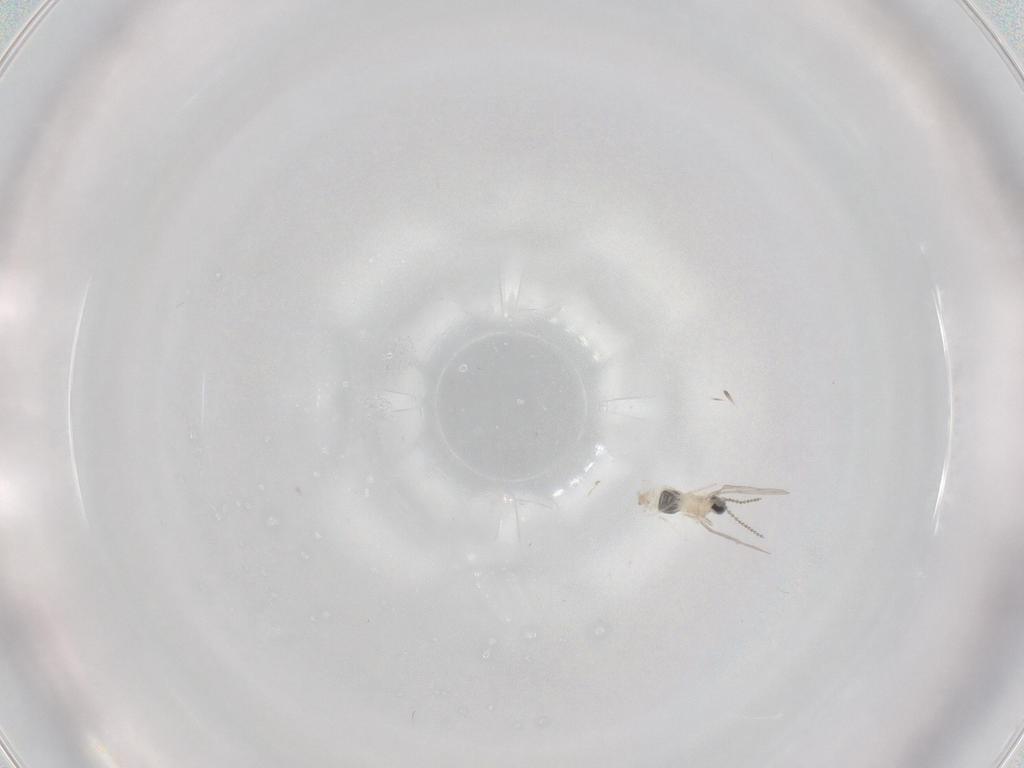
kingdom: Animalia
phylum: Arthropoda
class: Insecta
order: Diptera
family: Cecidomyiidae
